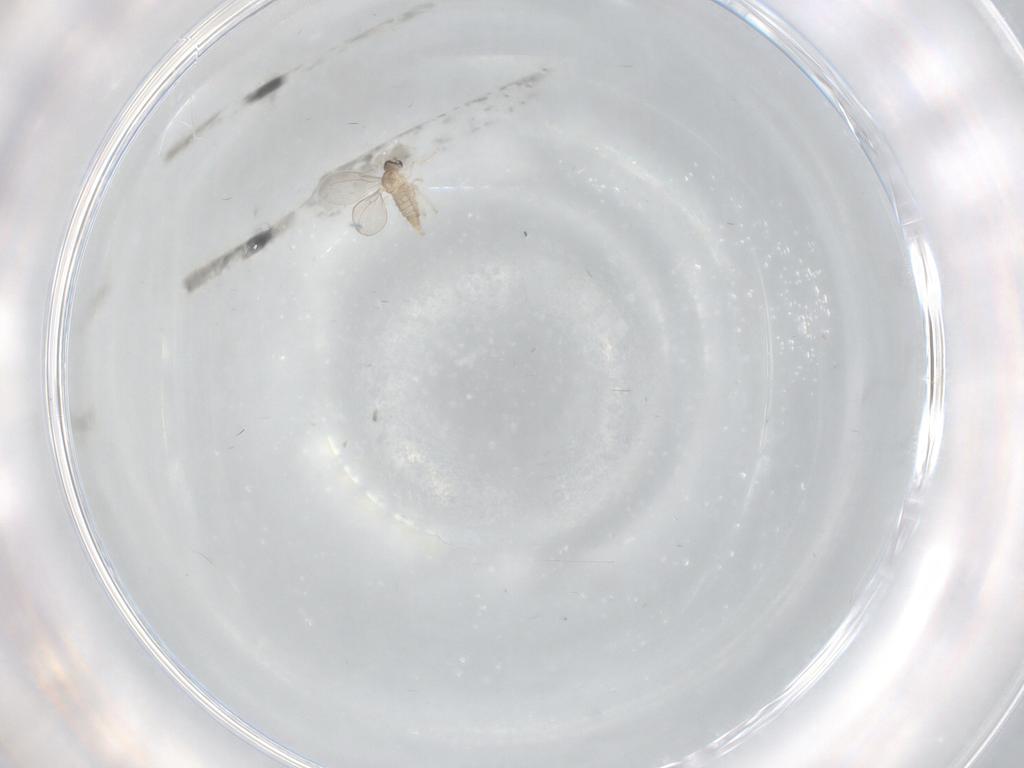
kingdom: Animalia
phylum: Arthropoda
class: Insecta
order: Diptera
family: Cecidomyiidae
